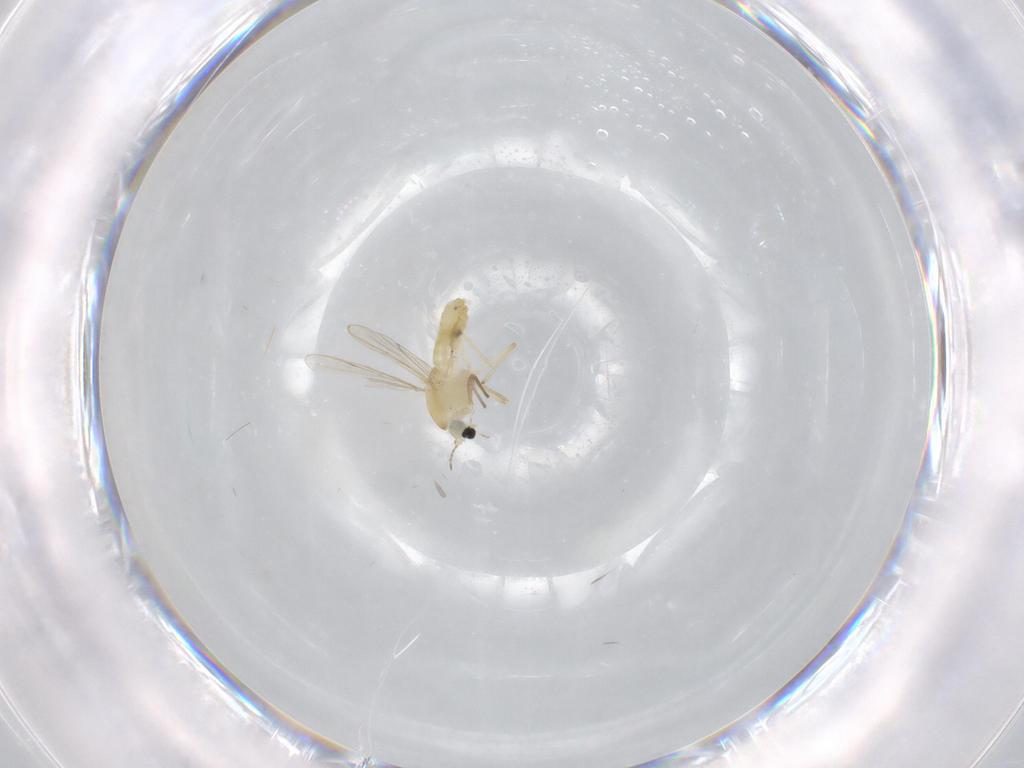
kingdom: Animalia
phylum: Arthropoda
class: Insecta
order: Diptera
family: Chironomidae
